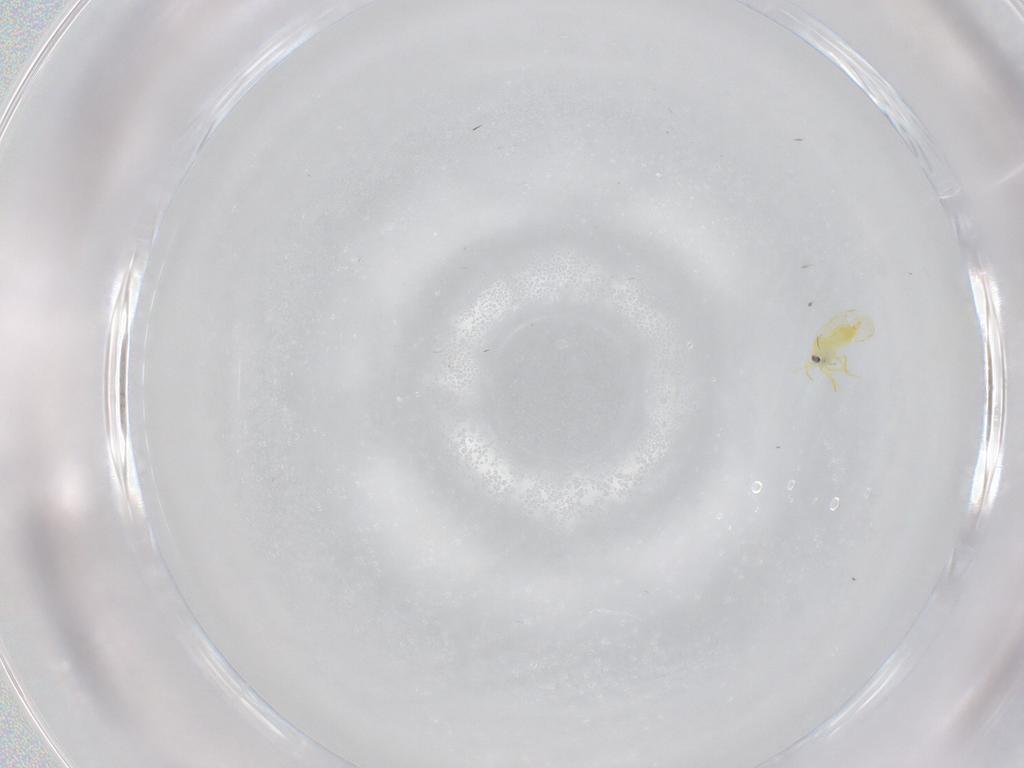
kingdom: Animalia
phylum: Arthropoda
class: Insecta
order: Hemiptera
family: Aleyrodidae
